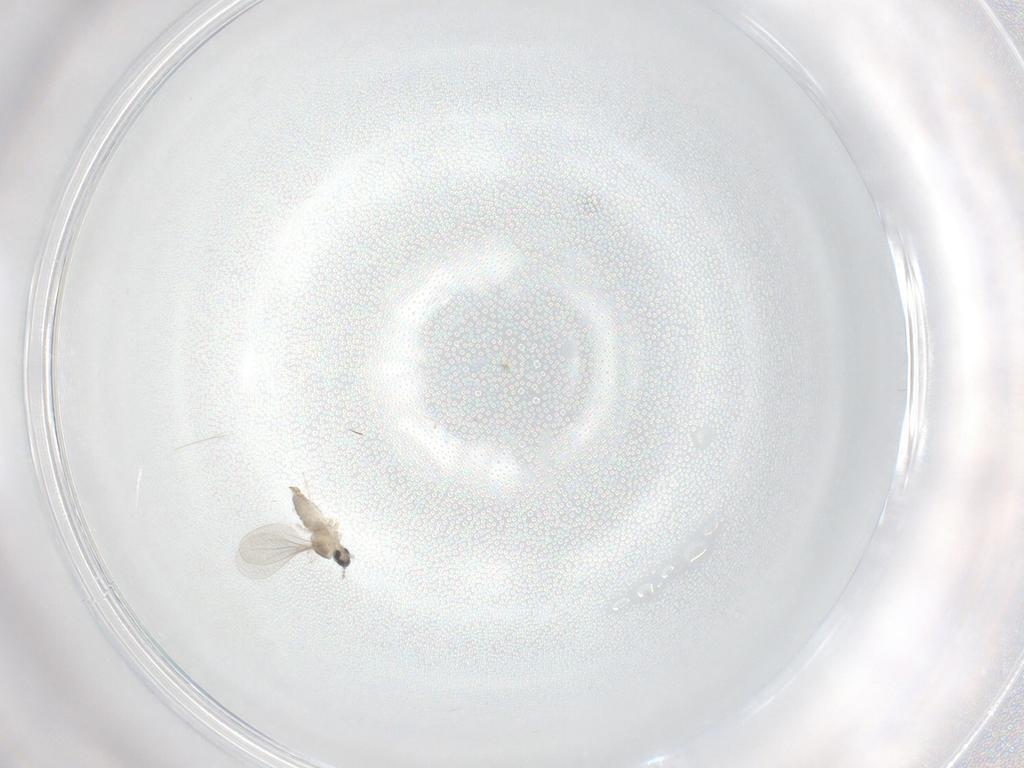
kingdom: Animalia
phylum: Arthropoda
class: Insecta
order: Diptera
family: Cecidomyiidae
